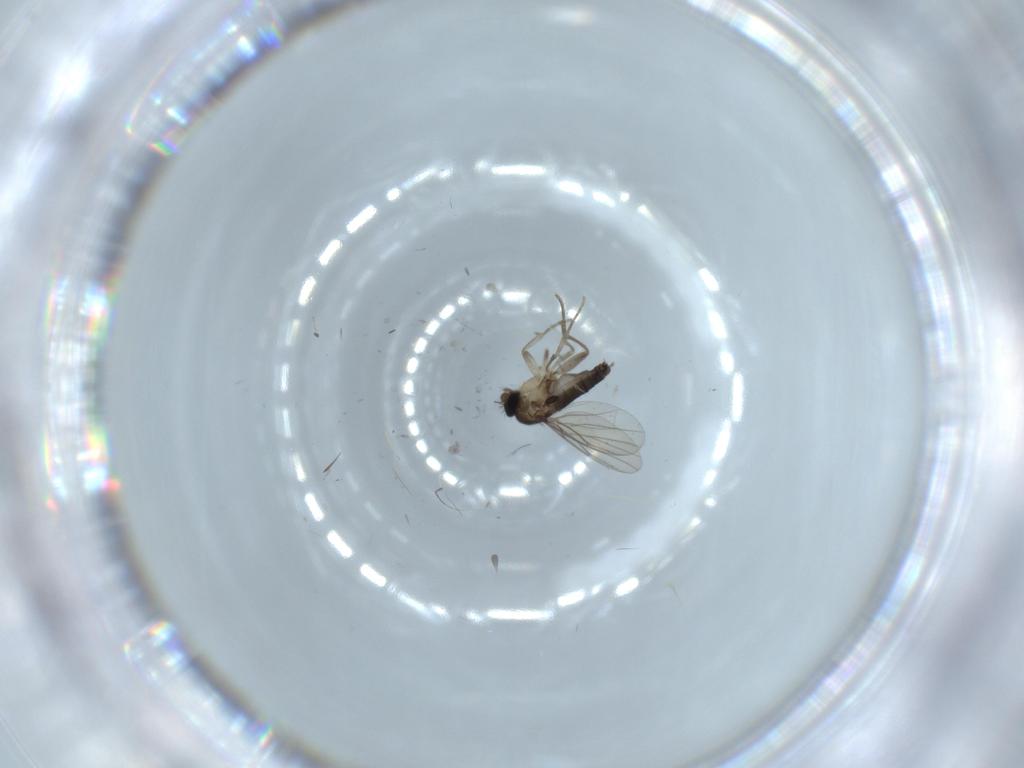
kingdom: Animalia
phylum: Arthropoda
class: Insecta
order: Diptera
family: Phoridae
